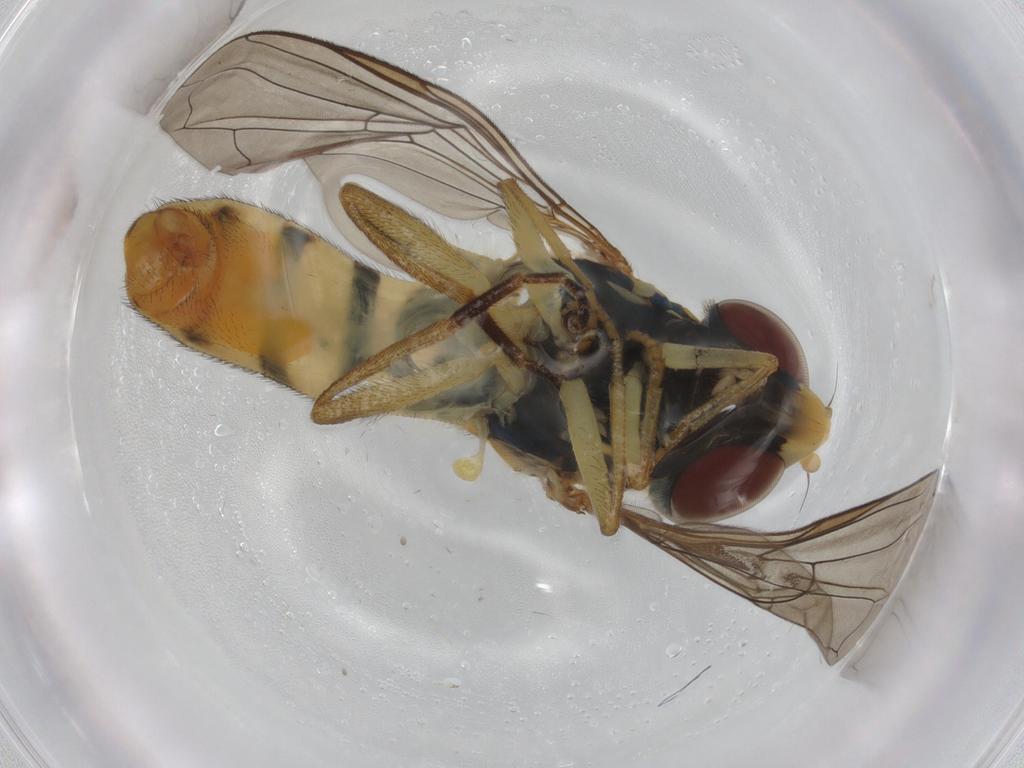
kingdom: Animalia
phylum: Arthropoda
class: Insecta
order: Diptera
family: Syrphidae
